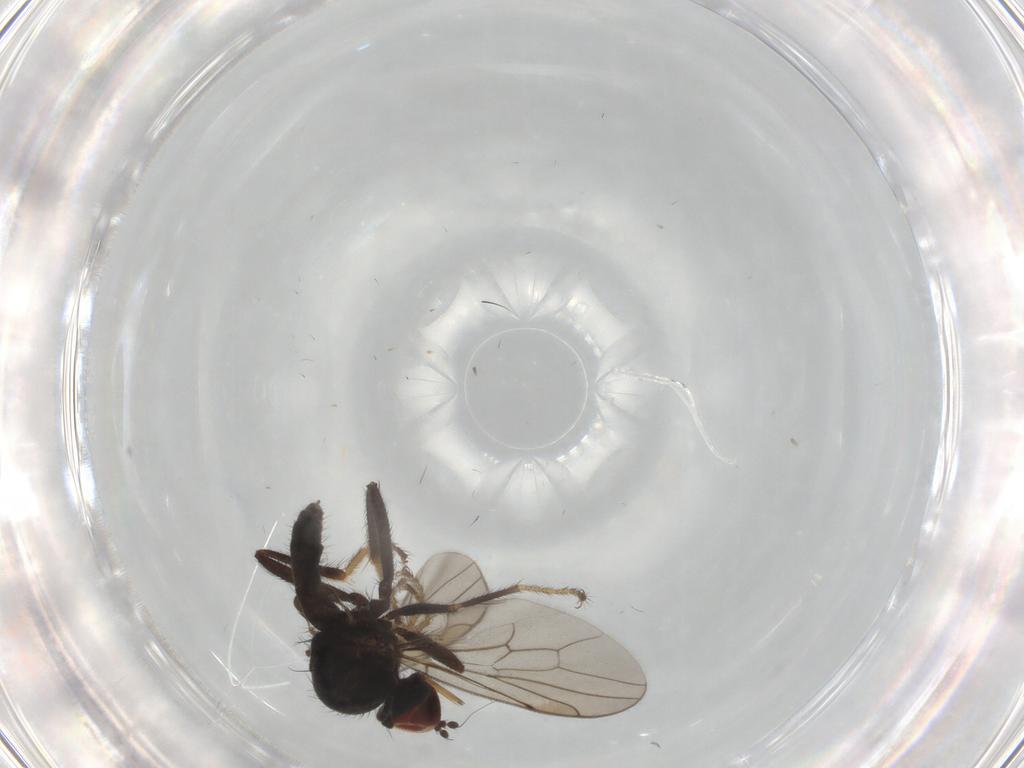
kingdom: Animalia
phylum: Arthropoda
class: Insecta
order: Diptera
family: Hybotidae
